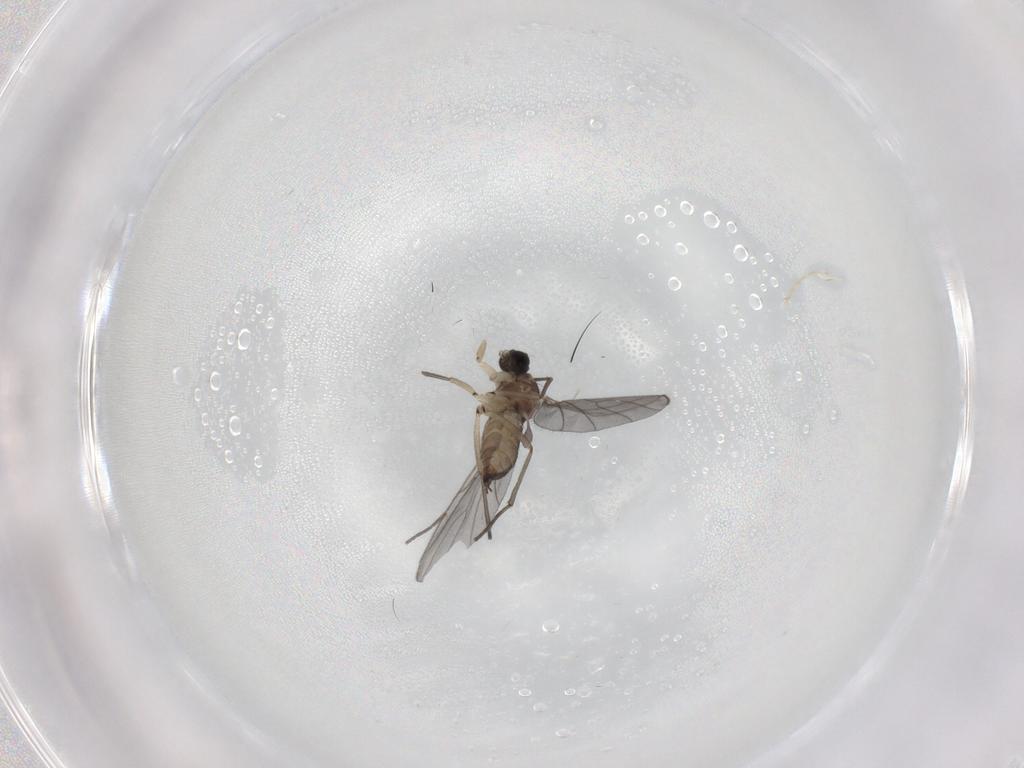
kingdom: Animalia
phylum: Arthropoda
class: Insecta
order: Diptera
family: Sciaridae
